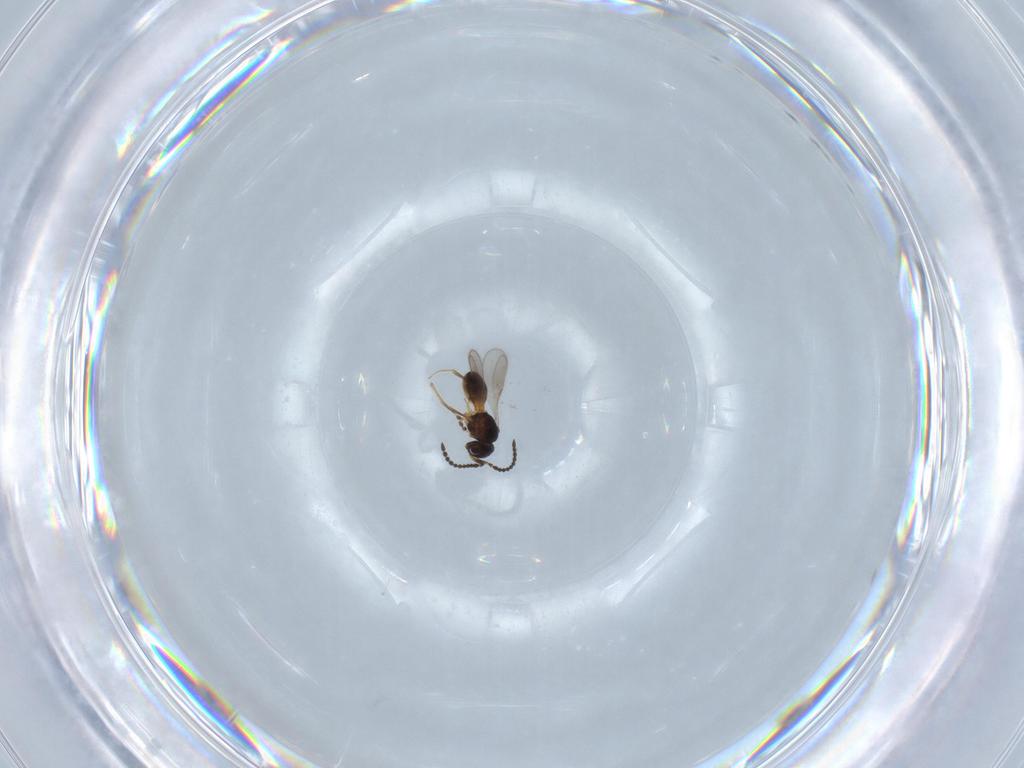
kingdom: Animalia
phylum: Arthropoda
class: Insecta
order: Hymenoptera
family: Scelionidae
